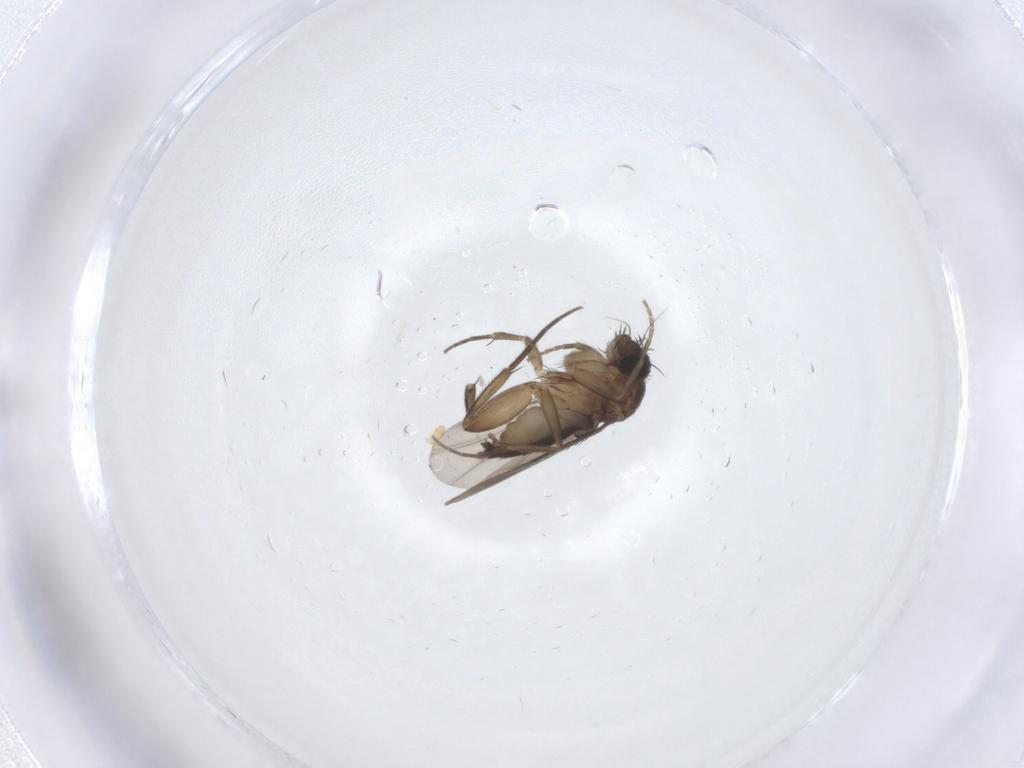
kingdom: Animalia
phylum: Arthropoda
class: Insecta
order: Diptera
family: Phoridae
